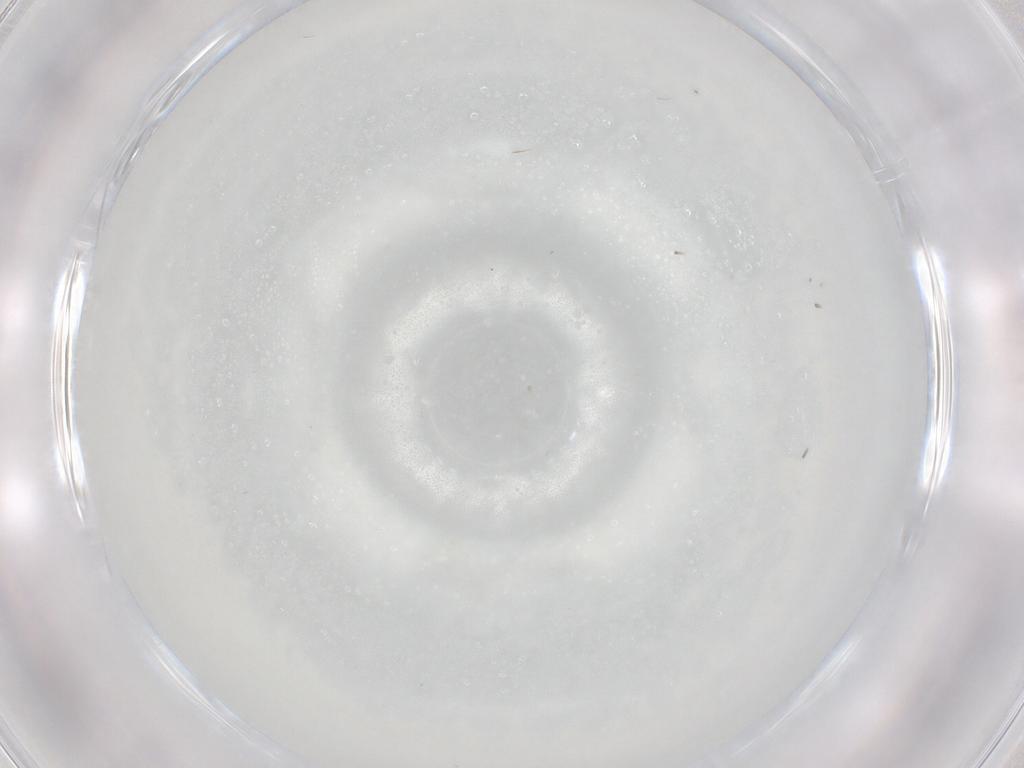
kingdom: Animalia
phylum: Arthropoda
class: Insecta
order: Diptera
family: Cecidomyiidae
